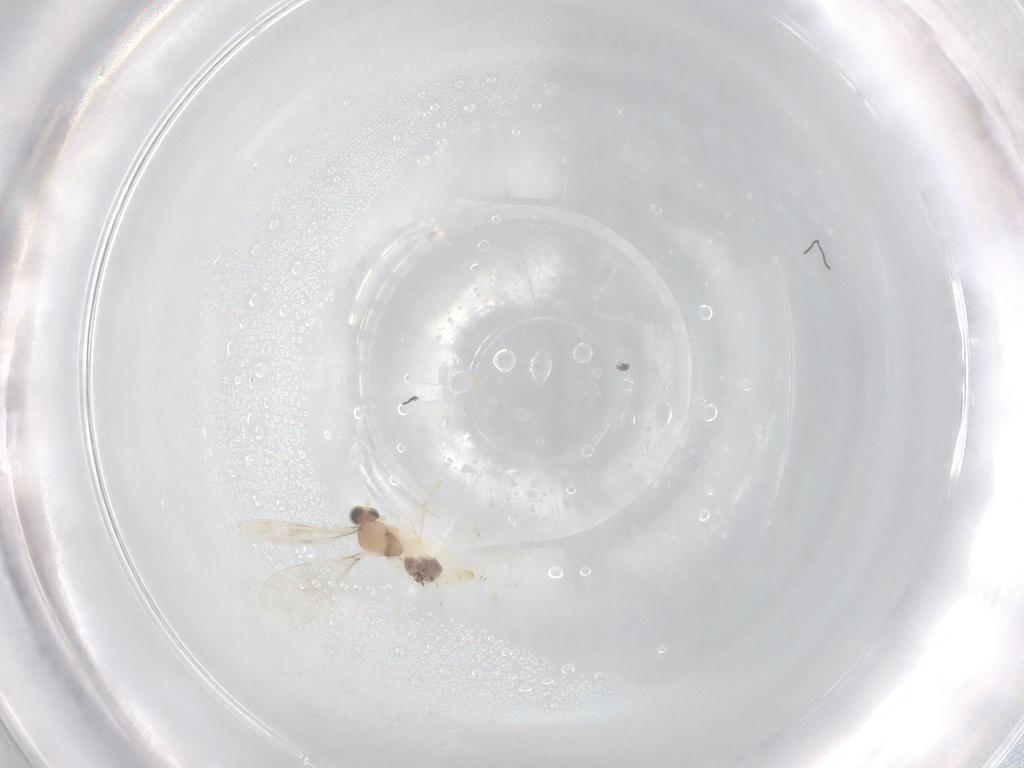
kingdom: Animalia
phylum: Arthropoda
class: Insecta
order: Diptera
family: Cecidomyiidae
